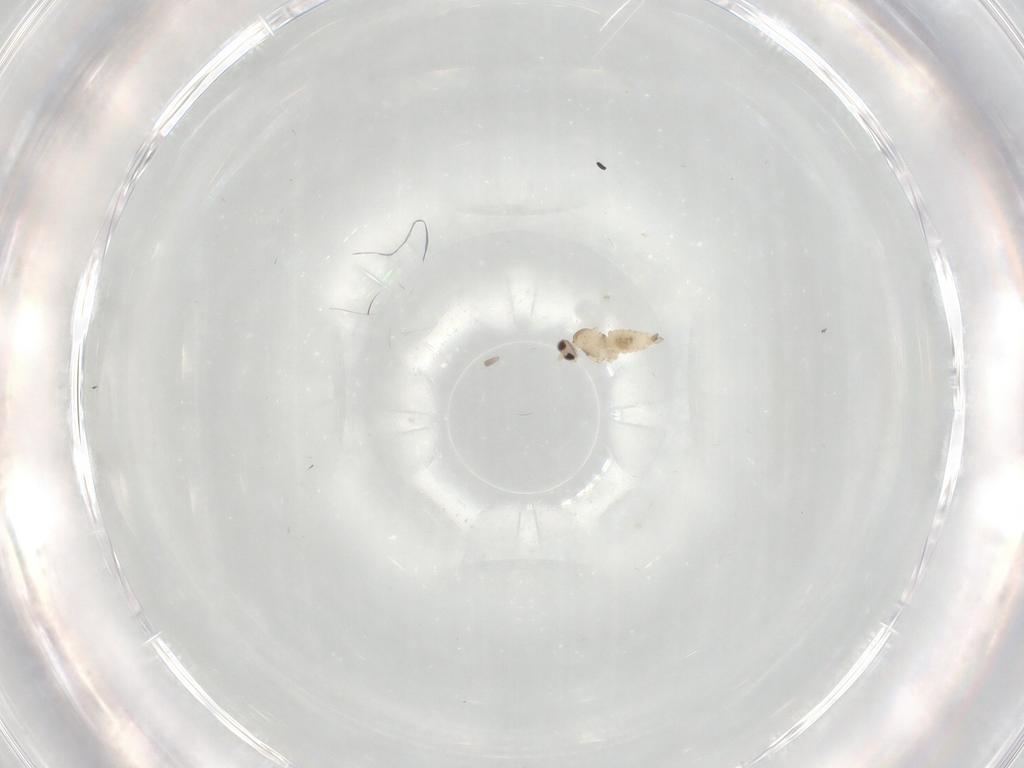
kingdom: Animalia
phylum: Arthropoda
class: Insecta
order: Diptera
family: Cecidomyiidae
